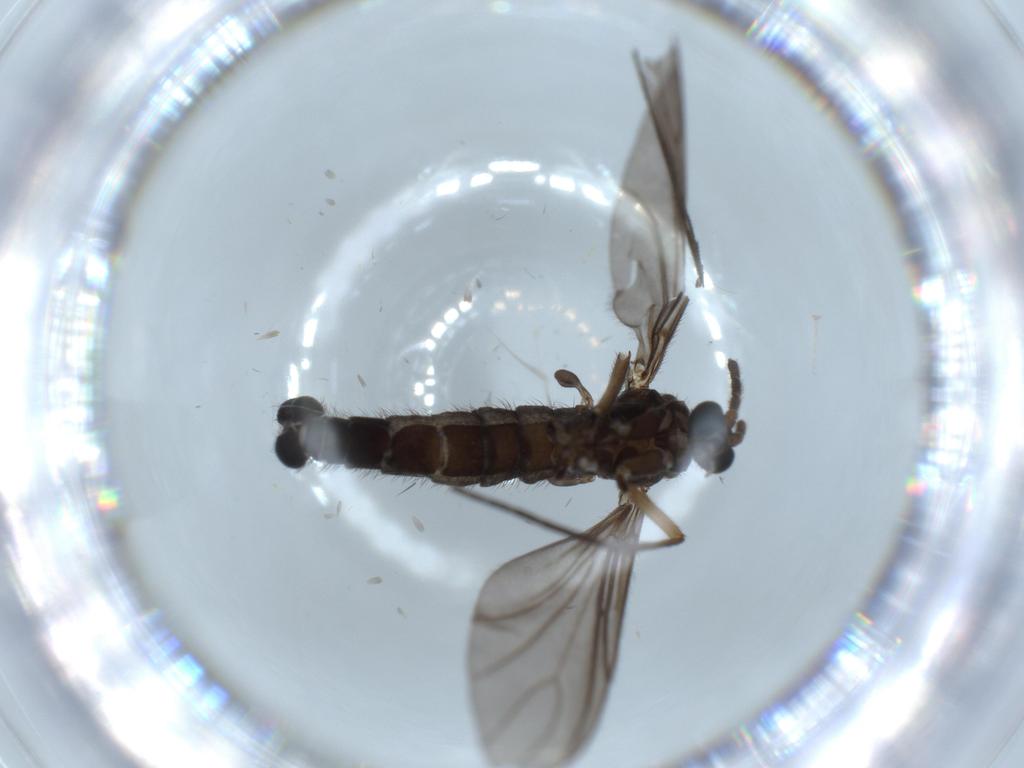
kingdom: Animalia
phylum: Arthropoda
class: Insecta
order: Diptera
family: Sciaridae
